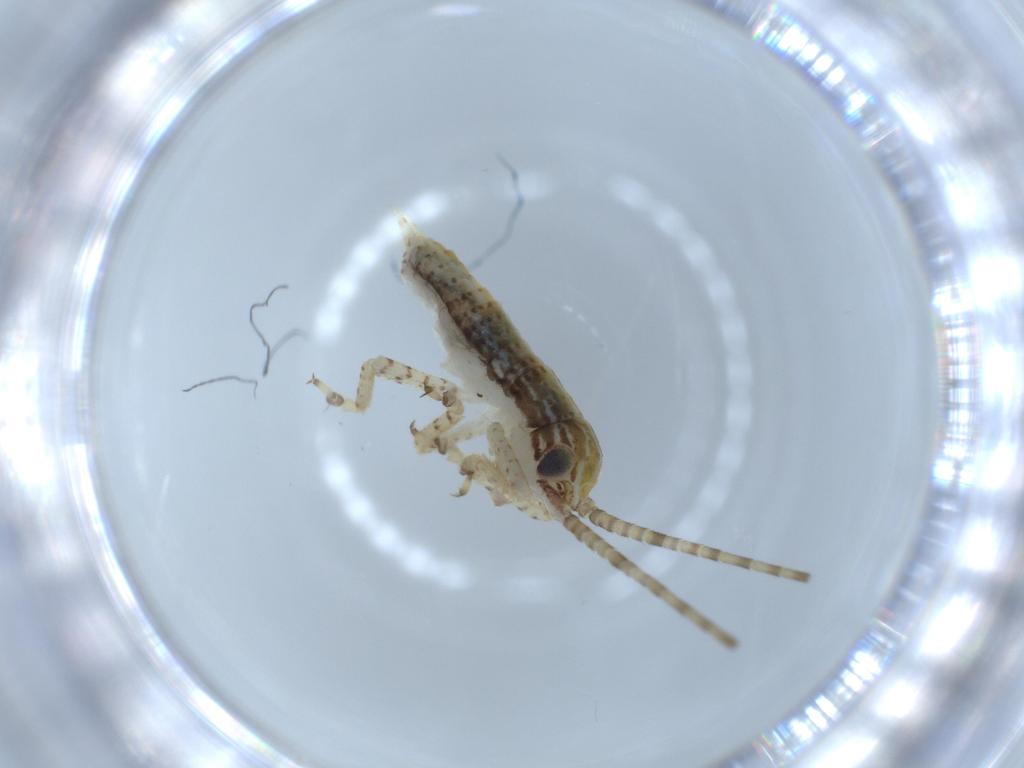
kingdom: Animalia
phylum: Arthropoda
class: Insecta
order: Orthoptera
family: Gryllidae
